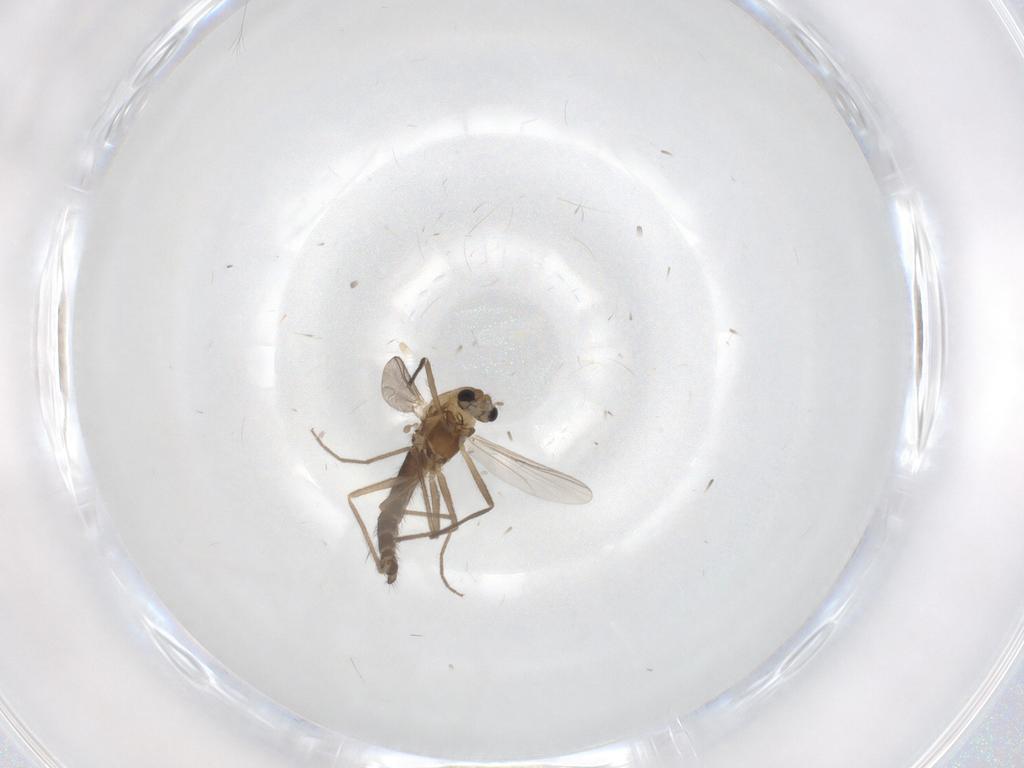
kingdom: Animalia
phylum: Arthropoda
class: Insecta
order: Diptera
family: Chironomidae
